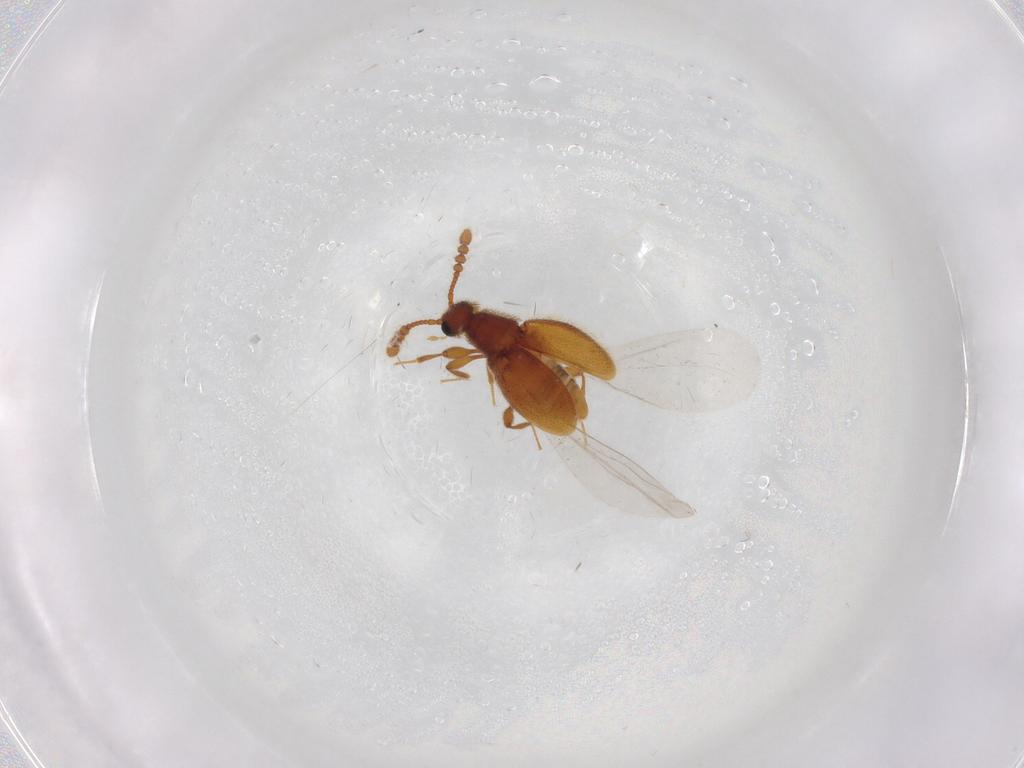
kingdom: Animalia
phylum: Arthropoda
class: Insecta
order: Coleoptera
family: Staphylinidae
